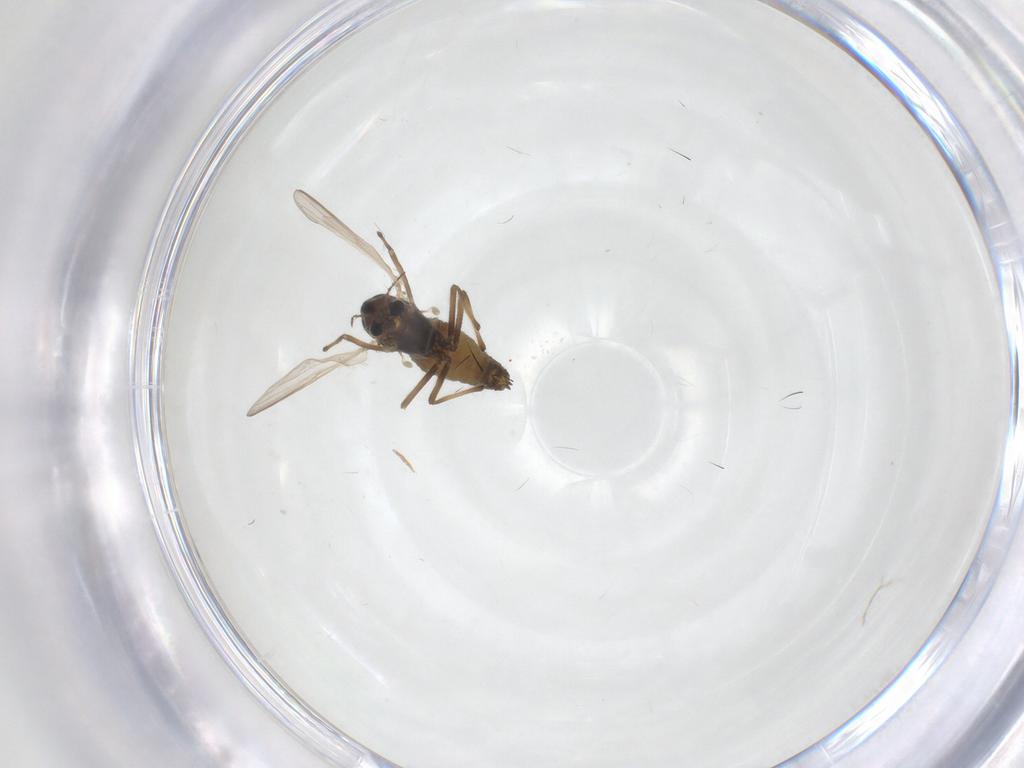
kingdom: Animalia
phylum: Arthropoda
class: Insecta
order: Diptera
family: Chironomidae
